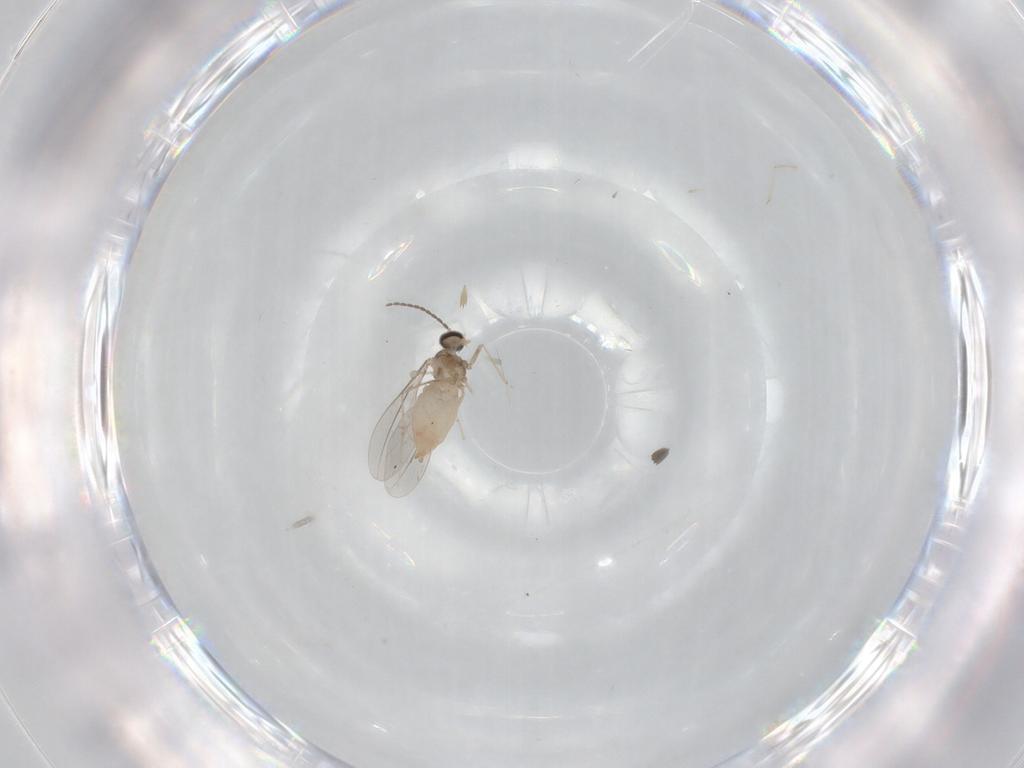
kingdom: Animalia
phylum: Arthropoda
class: Insecta
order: Diptera
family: Cecidomyiidae
